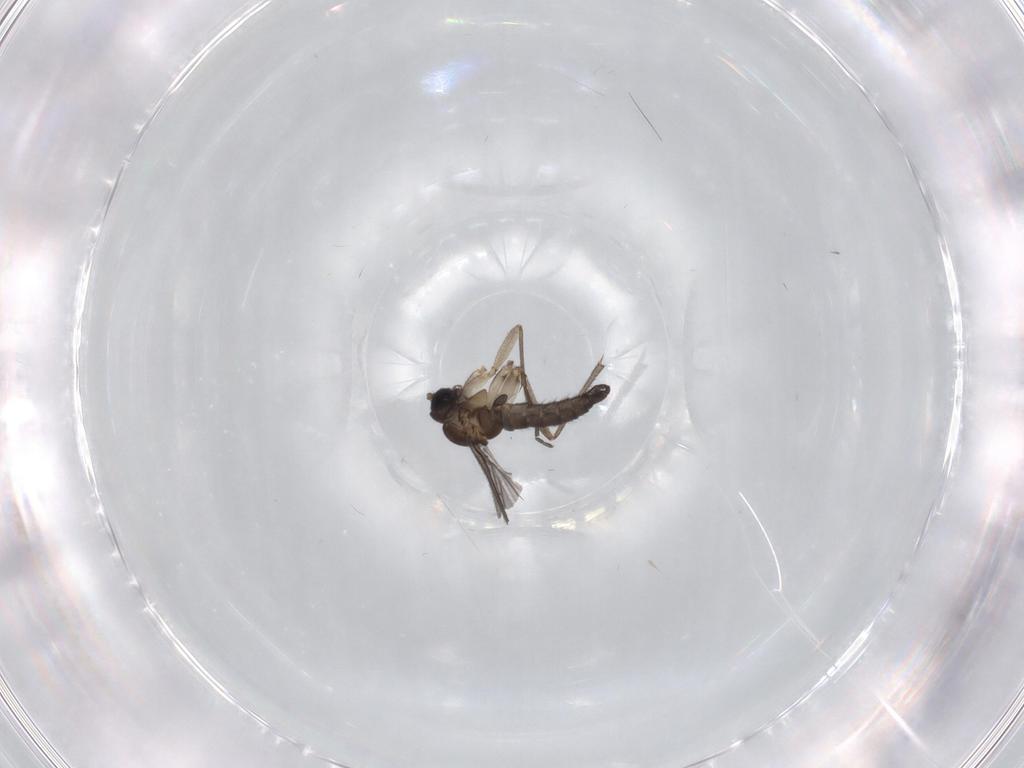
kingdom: Animalia
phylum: Arthropoda
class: Insecta
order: Diptera
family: Sciaridae
